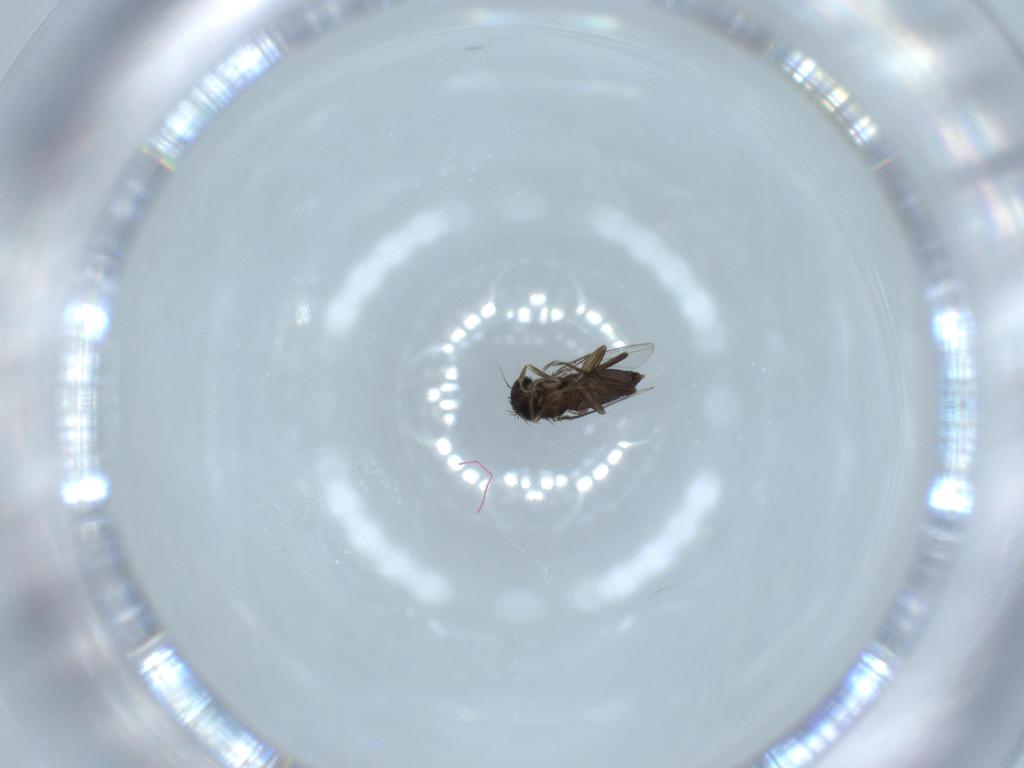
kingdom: Animalia
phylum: Arthropoda
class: Insecta
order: Diptera
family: Phoridae
